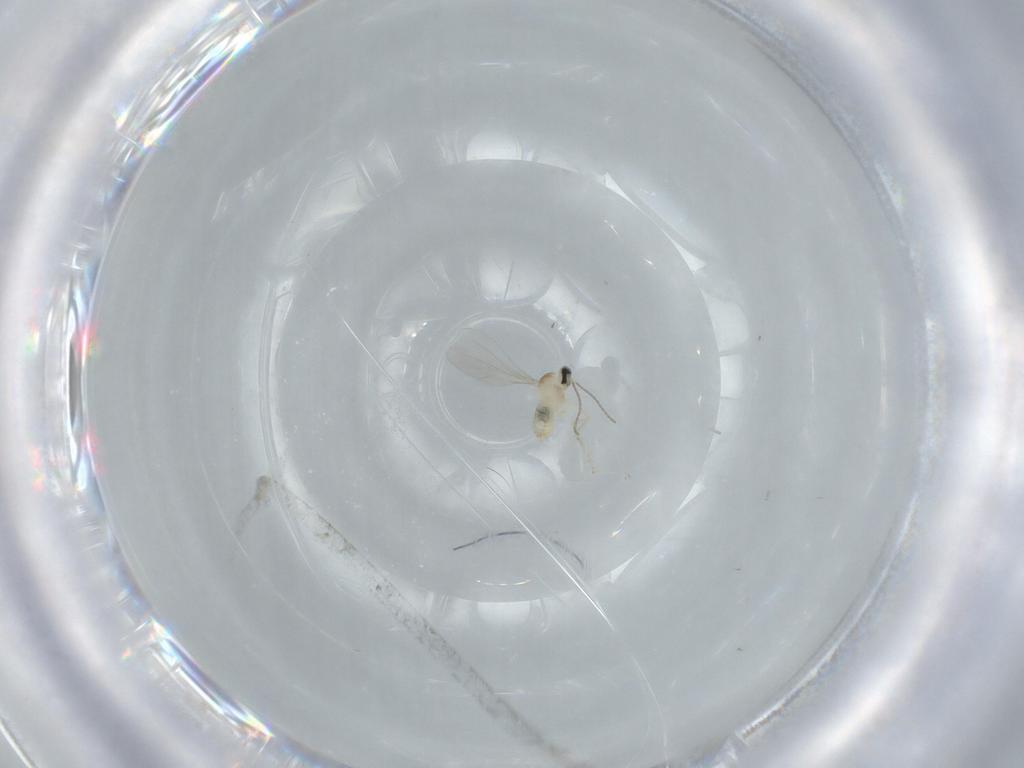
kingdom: Animalia
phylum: Arthropoda
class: Insecta
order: Diptera
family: Cecidomyiidae
